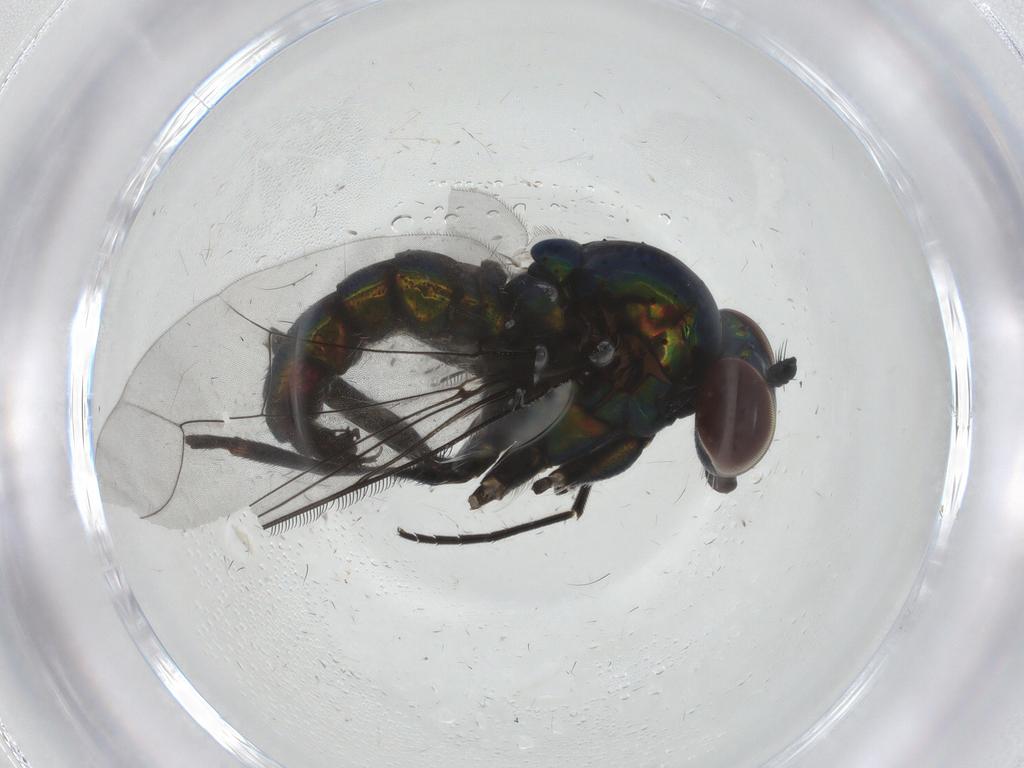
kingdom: Animalia
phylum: Arthropoda
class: Insecta
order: Diptera
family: Dolichopodidae
